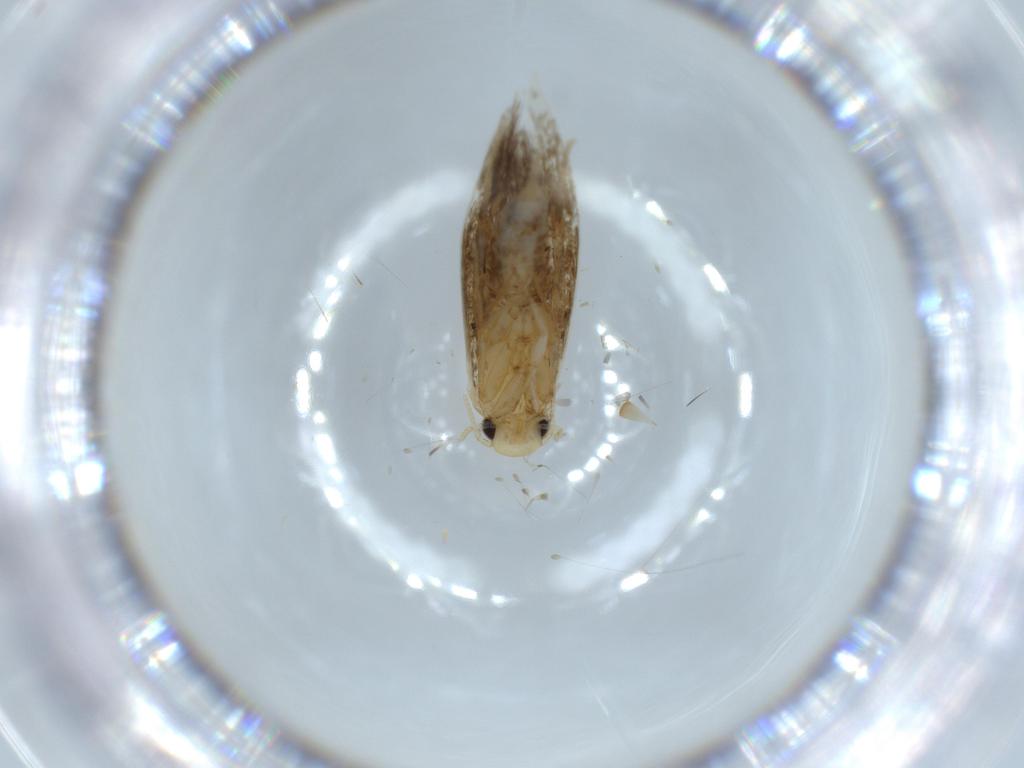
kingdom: Animalia
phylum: Arthropoda
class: Insecta
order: Lepidoptera
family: Tineidae
